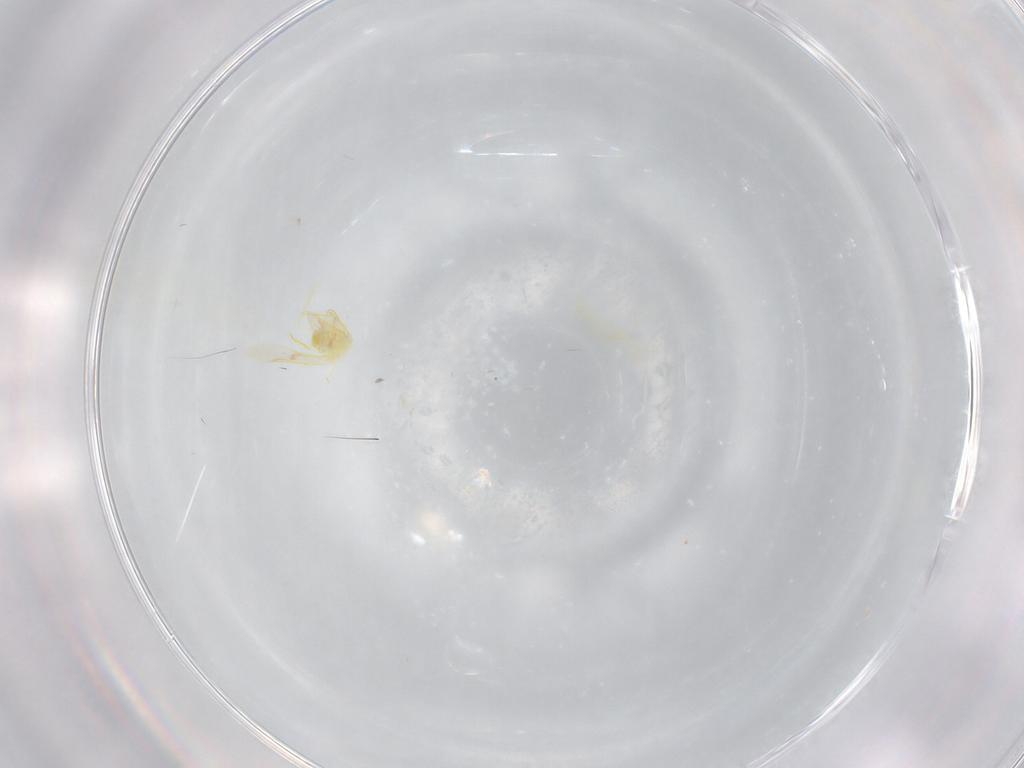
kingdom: Animalia
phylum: Arthropoda
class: Insecta
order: Hemiptera
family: Aleyrodidae
